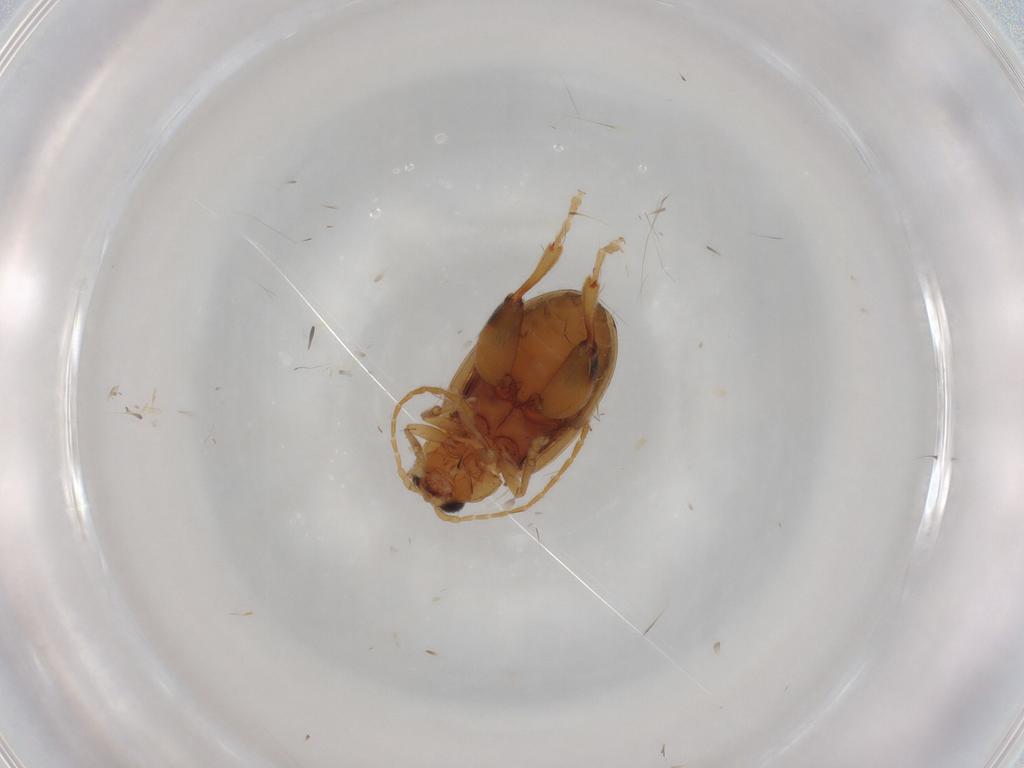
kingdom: Animalia
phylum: Arthropoda
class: Insecta
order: Coleoptera
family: Chrysomelidae
